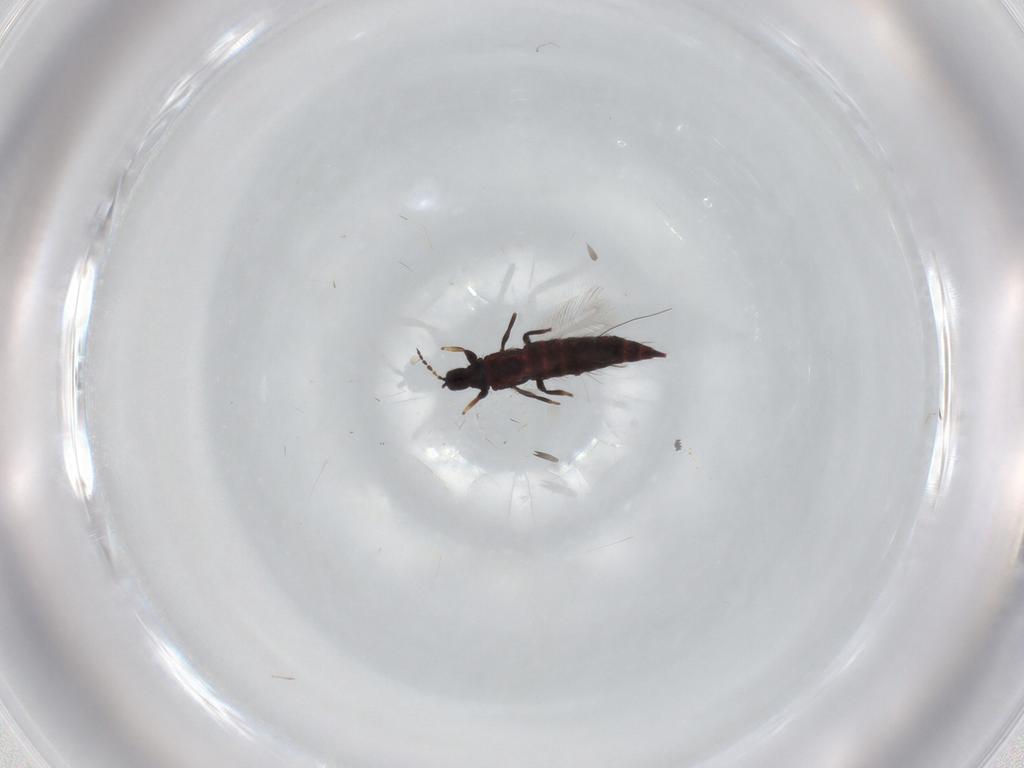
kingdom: Animalia
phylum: Arthropoda
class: Insecta
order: Thysanoptera
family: Phlaeothripidae
